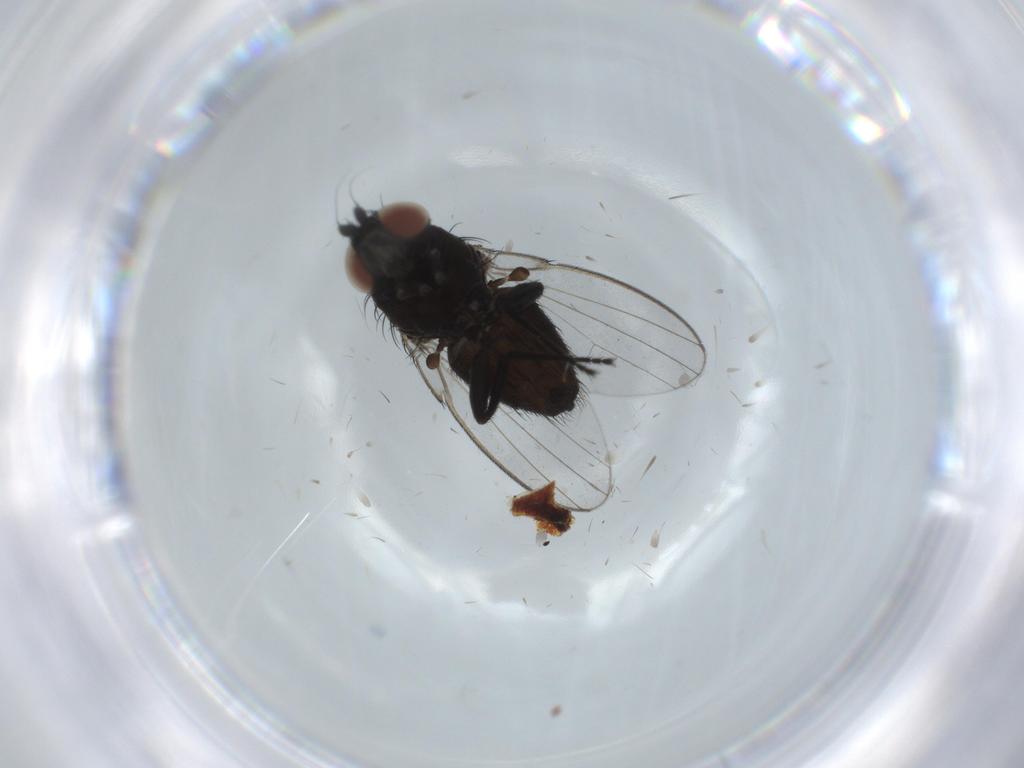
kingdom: Animalia
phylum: Arthropoda
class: Insecta
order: Diptera
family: Milichiidae
